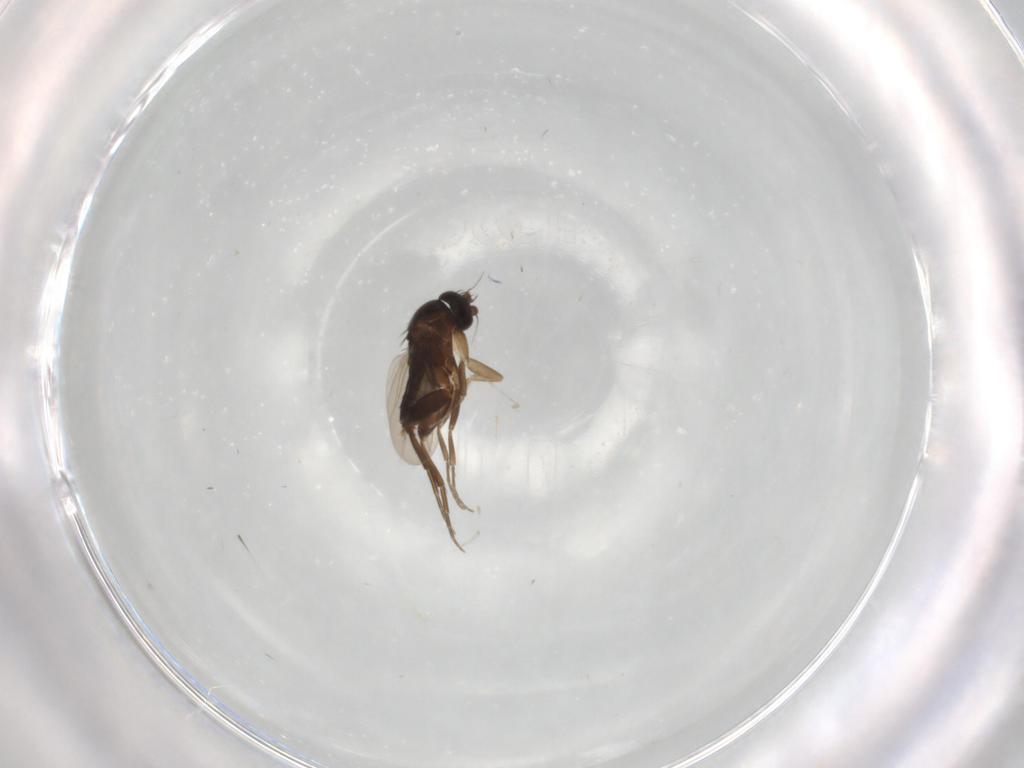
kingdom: Animalia
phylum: Arthropoda
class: Insecta
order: Diptera
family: Phoridae
